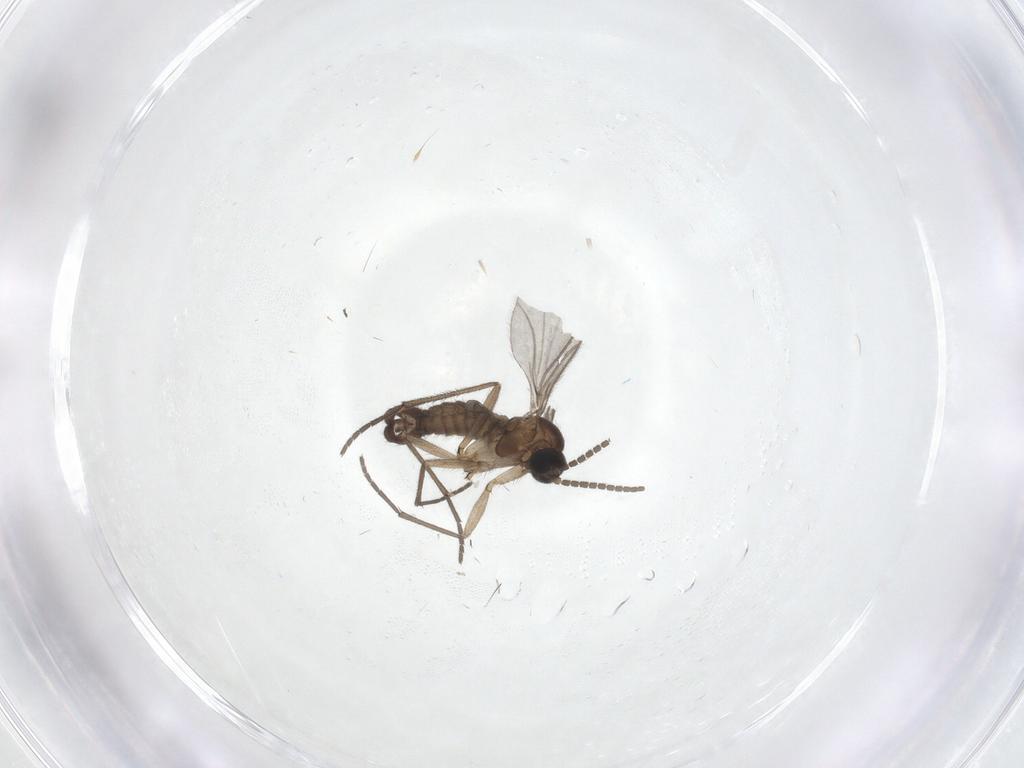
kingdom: Animalia
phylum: Arthropoda
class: Insecta
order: Diptera
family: Sciaridae
